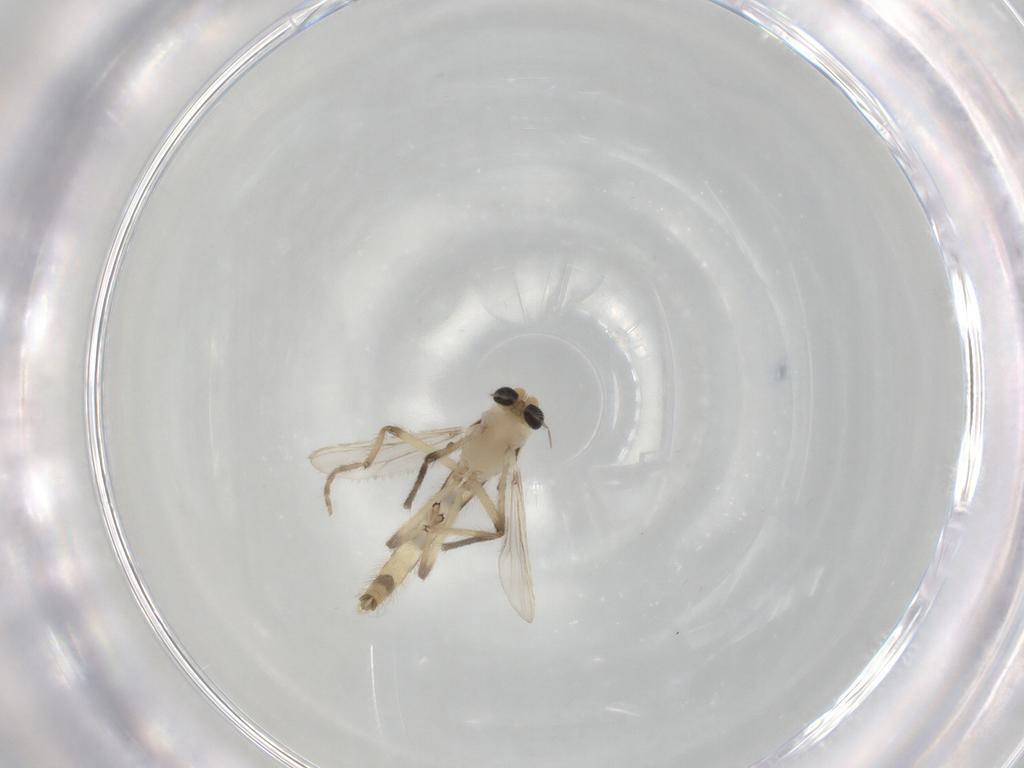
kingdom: Animalia
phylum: Arthropoda
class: Insecta
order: Diptera
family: Chironomidae
